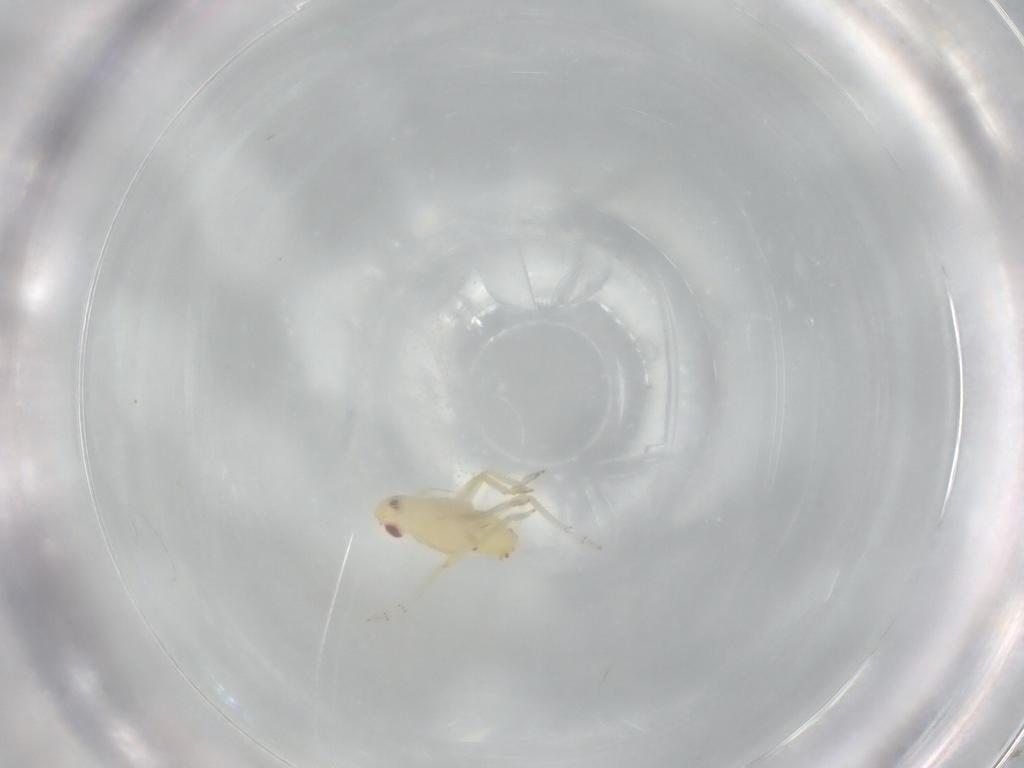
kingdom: Animalia
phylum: Arthropoda
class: Insecta
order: Hemiptera
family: Tropiduchidae
